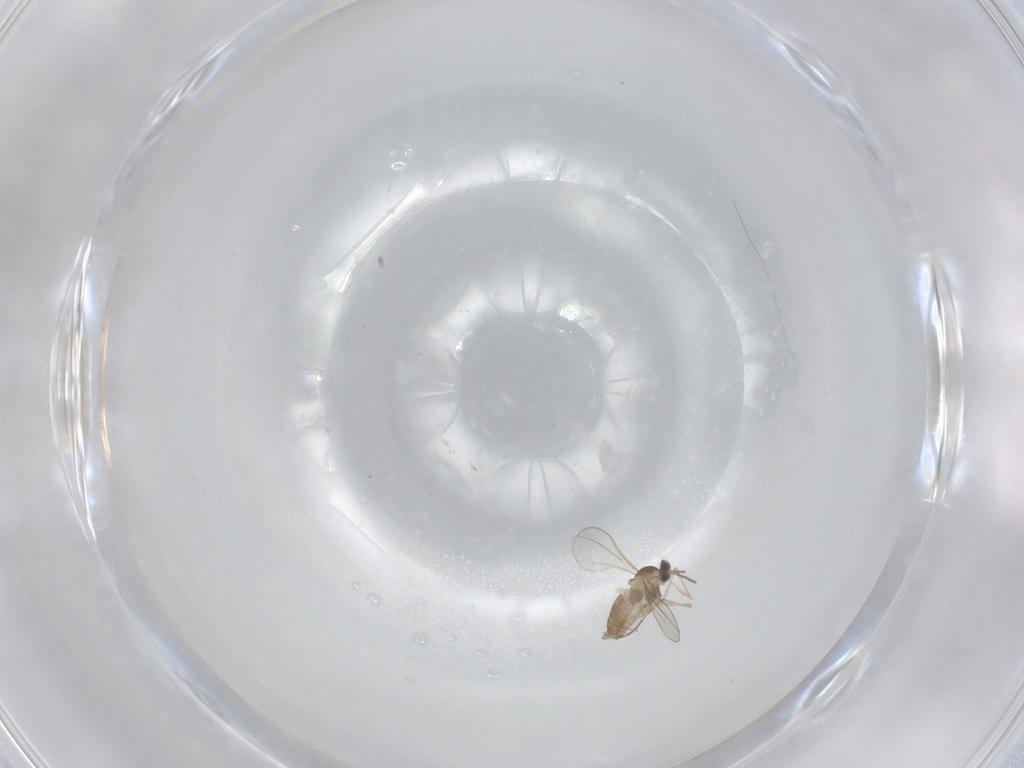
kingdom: Animalia
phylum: Arthropoda
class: Insecta
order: Diptera
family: Cecidomyiidae
